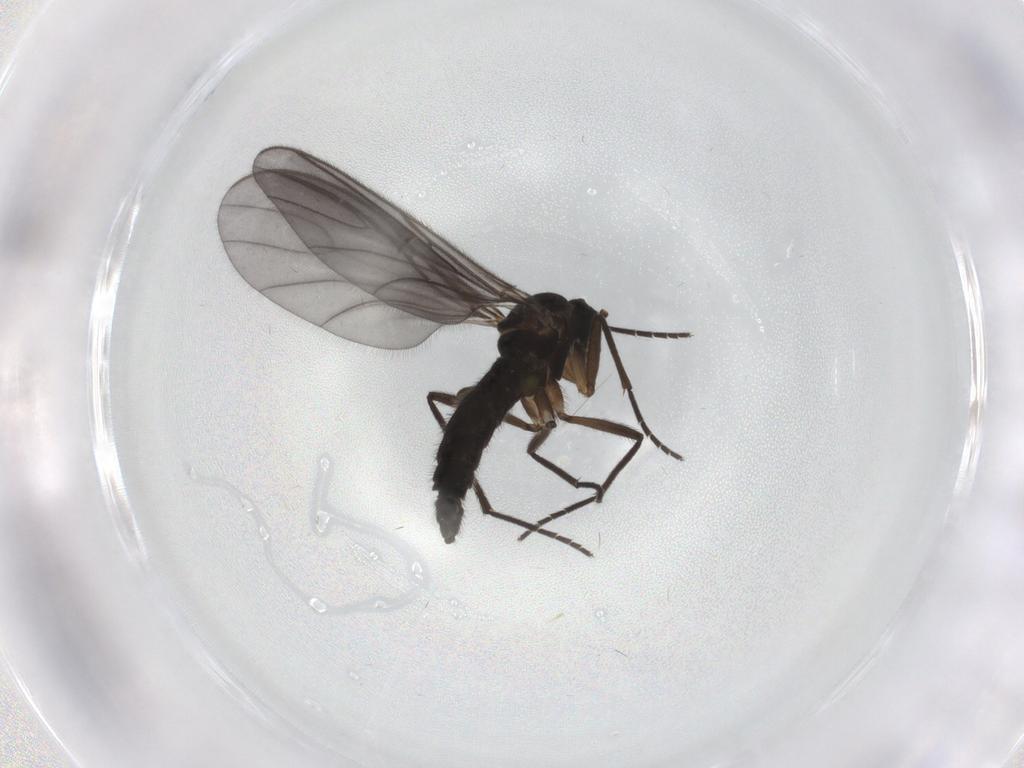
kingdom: Animalia
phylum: Arthropoda
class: Insecta
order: Diptera
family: Sciaridae
